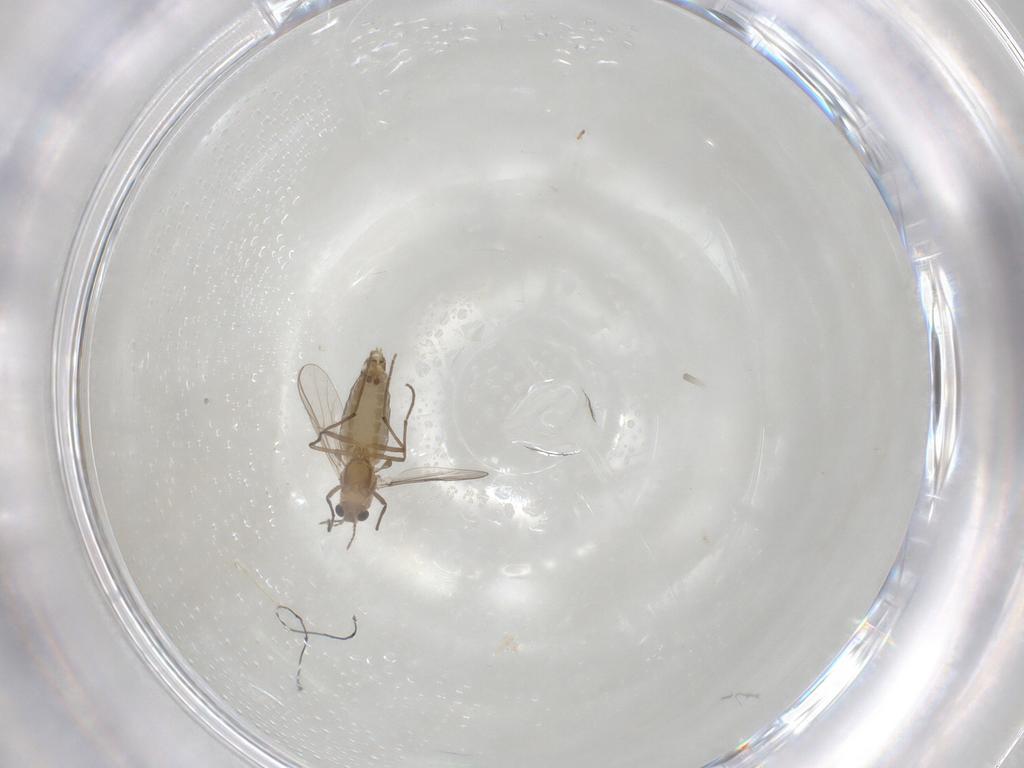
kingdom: Animalia
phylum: Arthropoda
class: Insecta
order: Diptera
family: Chironomidae
